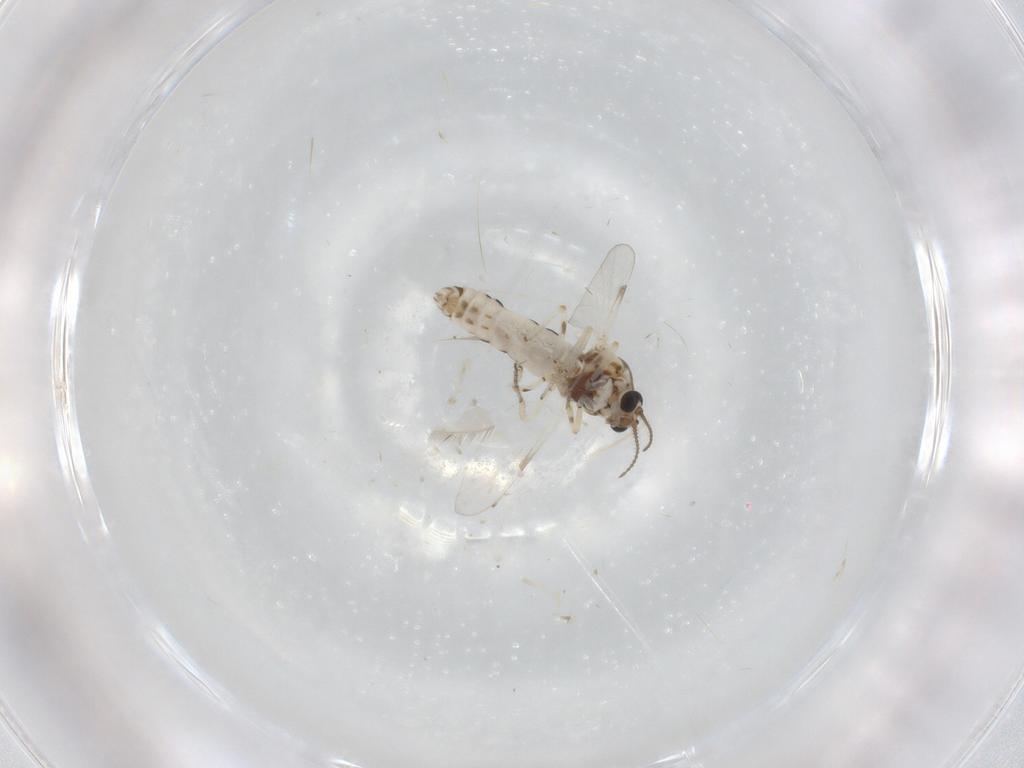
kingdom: Animalia
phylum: Arthropoda
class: Insecta
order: Diptera
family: Ceratopogonidae
